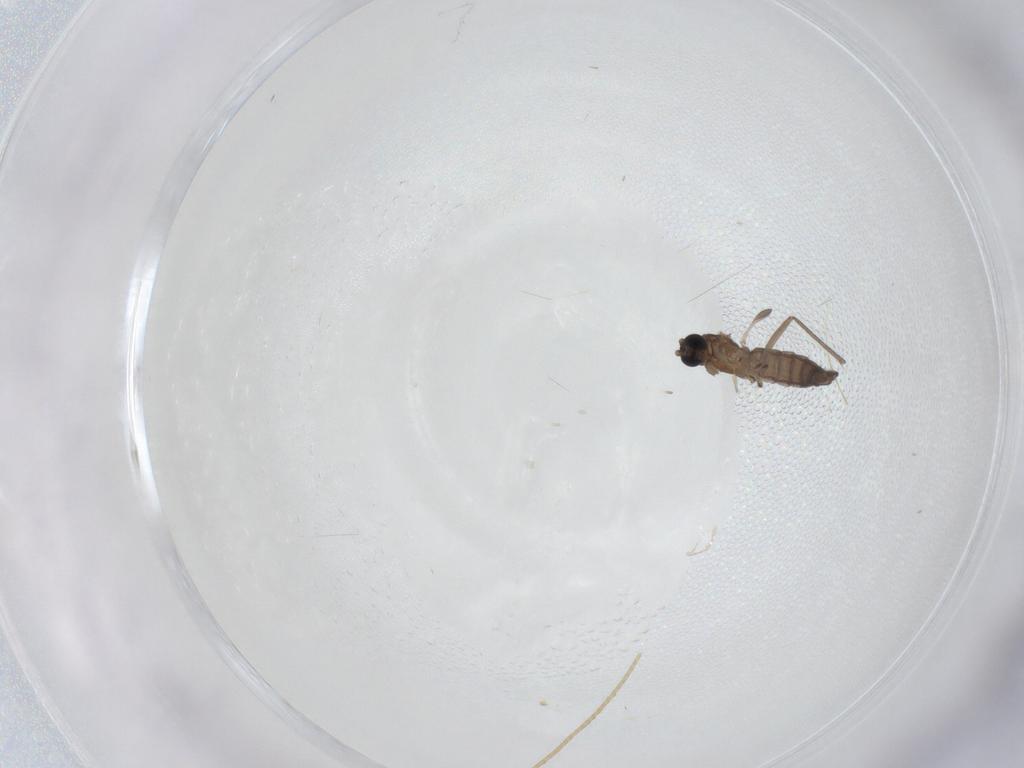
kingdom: Animalia
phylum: Arthropoda
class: Insecta
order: Diptera
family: Sciaridae
